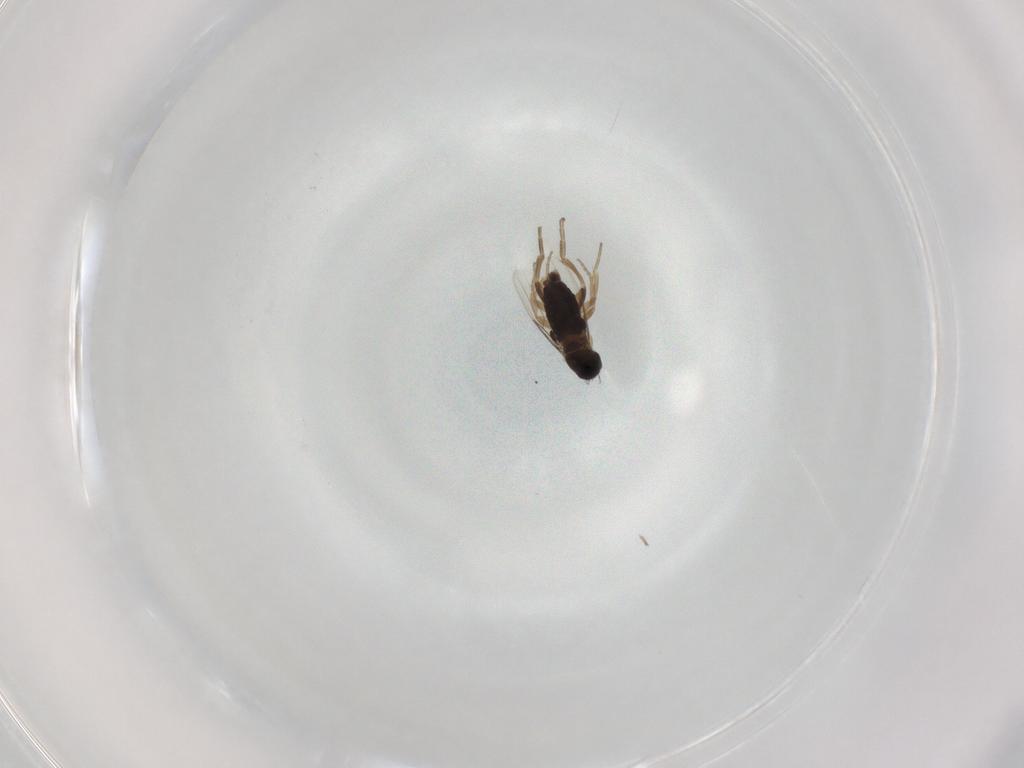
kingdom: Animalia
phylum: Arthropoda
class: Insecta
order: Diptera
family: Phoridae
